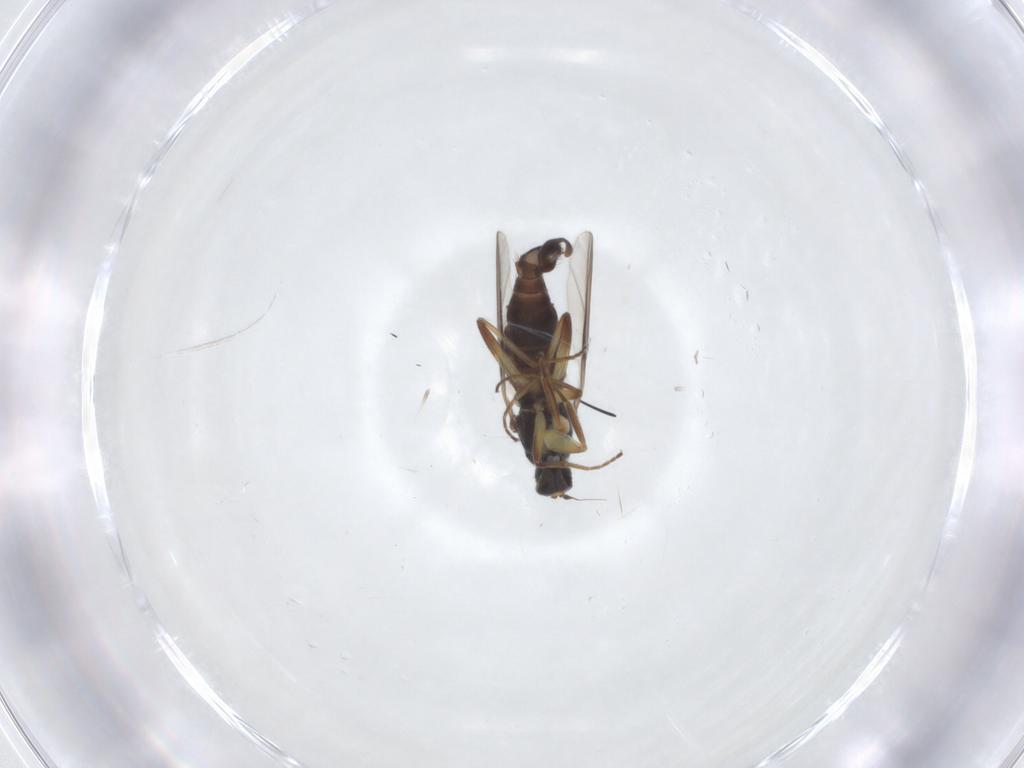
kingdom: Animalia
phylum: Arthropoda
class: Insecta
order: Diptera
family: Hybotidae
